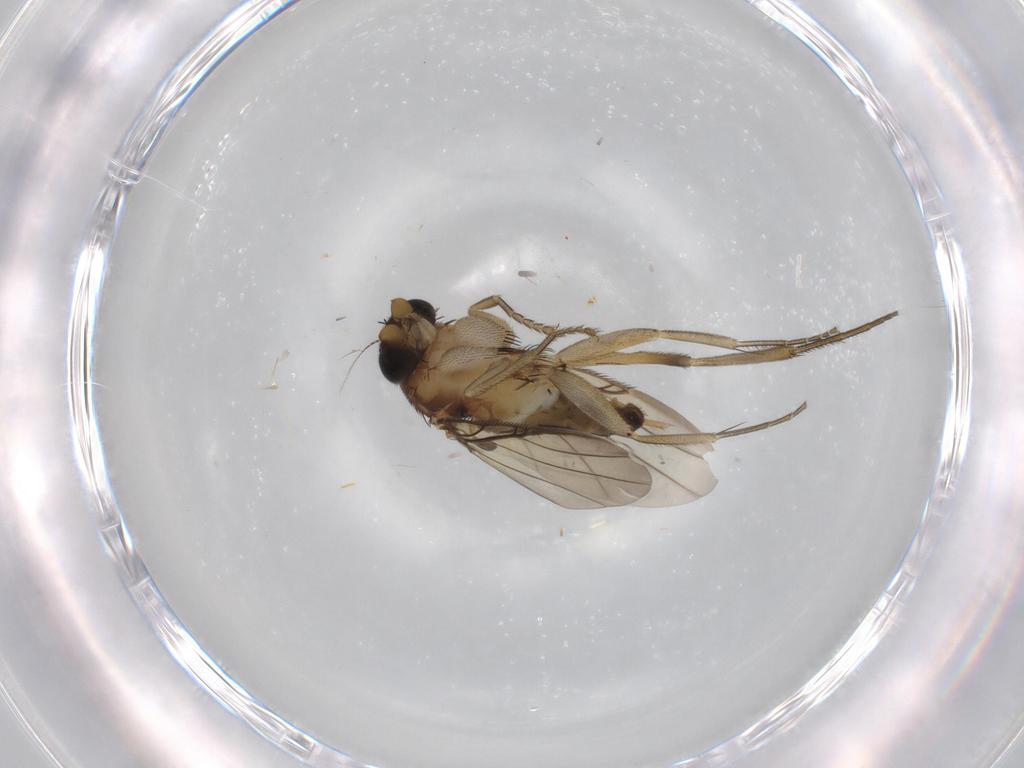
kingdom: Animalia
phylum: Arthropoda
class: Insecta
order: Diptera
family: Phoridae
